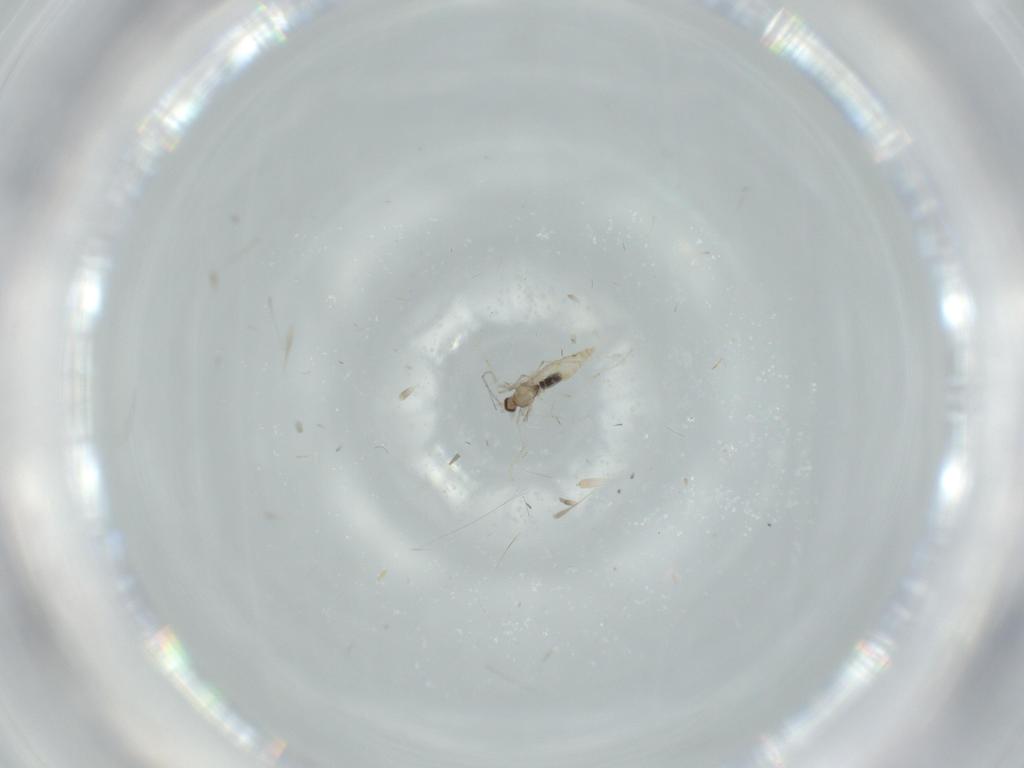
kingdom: Animalia
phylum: Arthropoda
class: Insecta
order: Diptera
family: Cecidomyiidae
